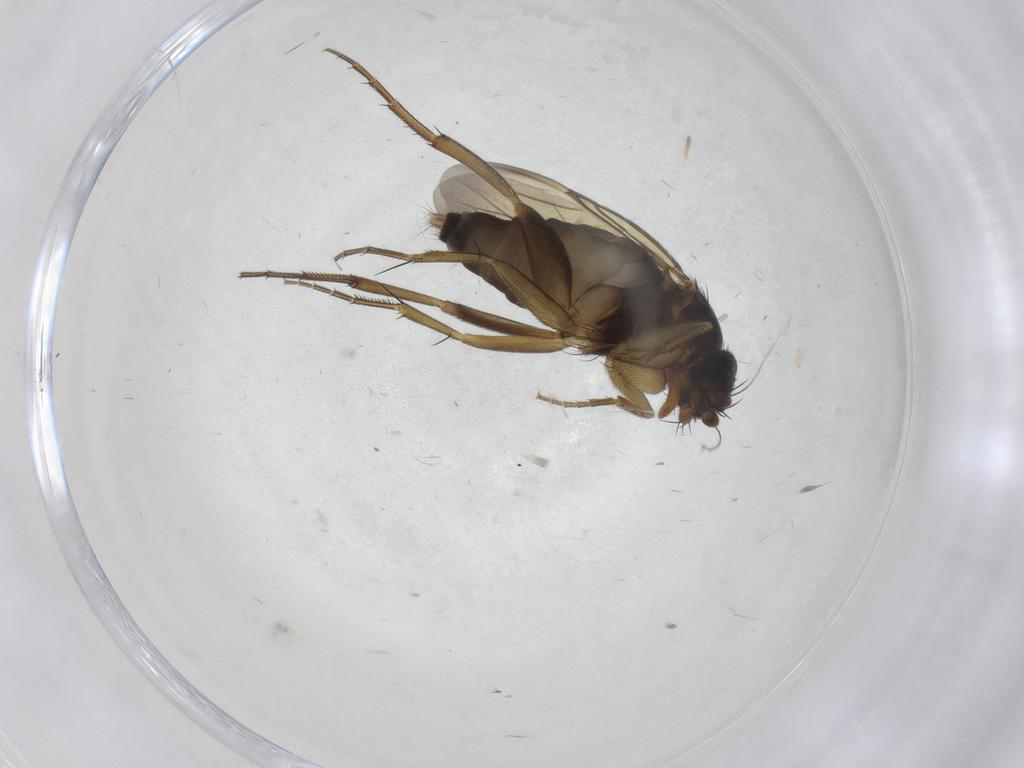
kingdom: Animalia
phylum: Arthropoda
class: Insecta
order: Diptera
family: Phoridae
